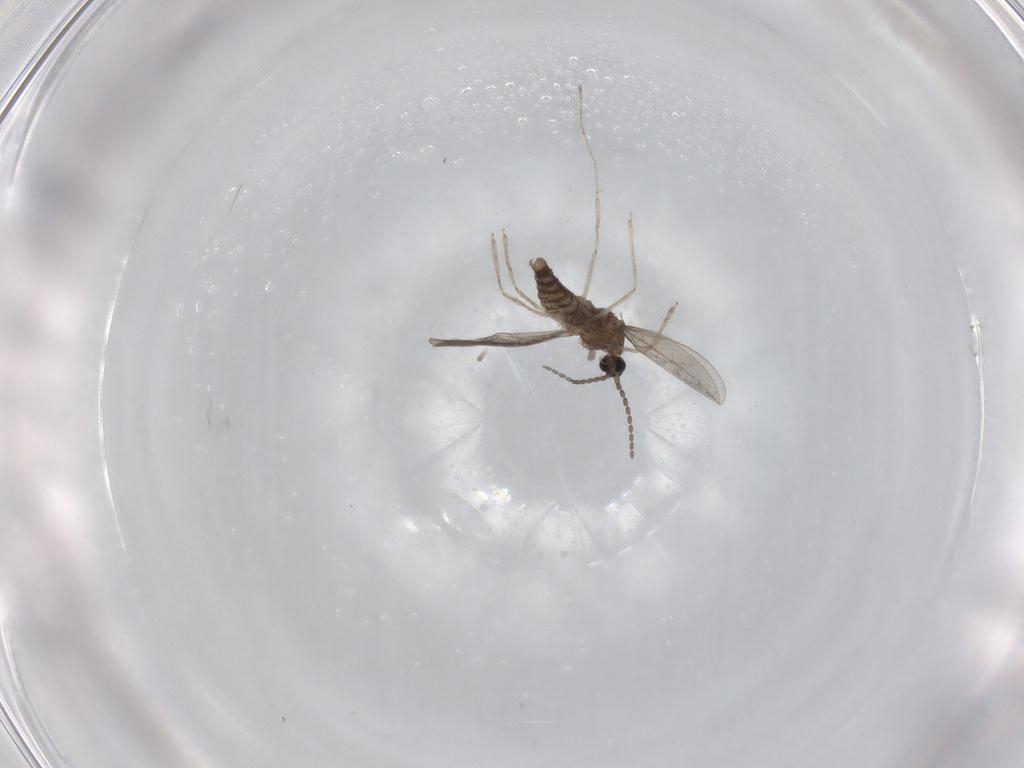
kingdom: Animalia
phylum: Arthropoda
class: Insecta
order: Diptera
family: Cecidomyiidae
